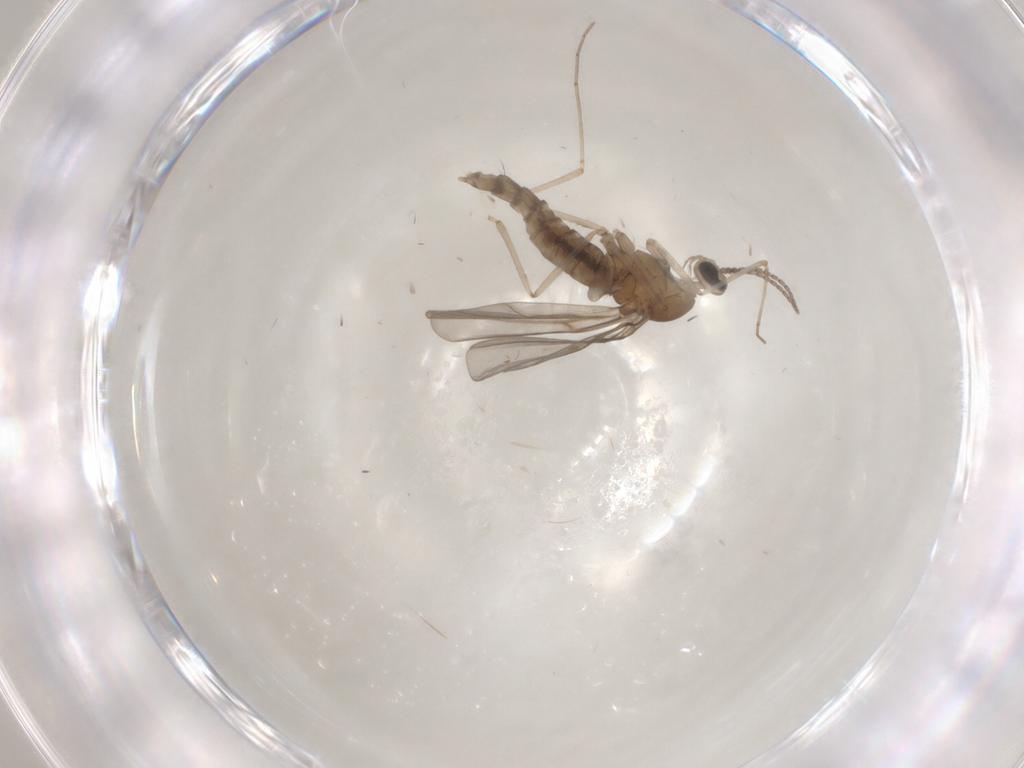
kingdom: Animalia
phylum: Arthropoda
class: Insecta
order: Diptera
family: Cecidomyiidae
